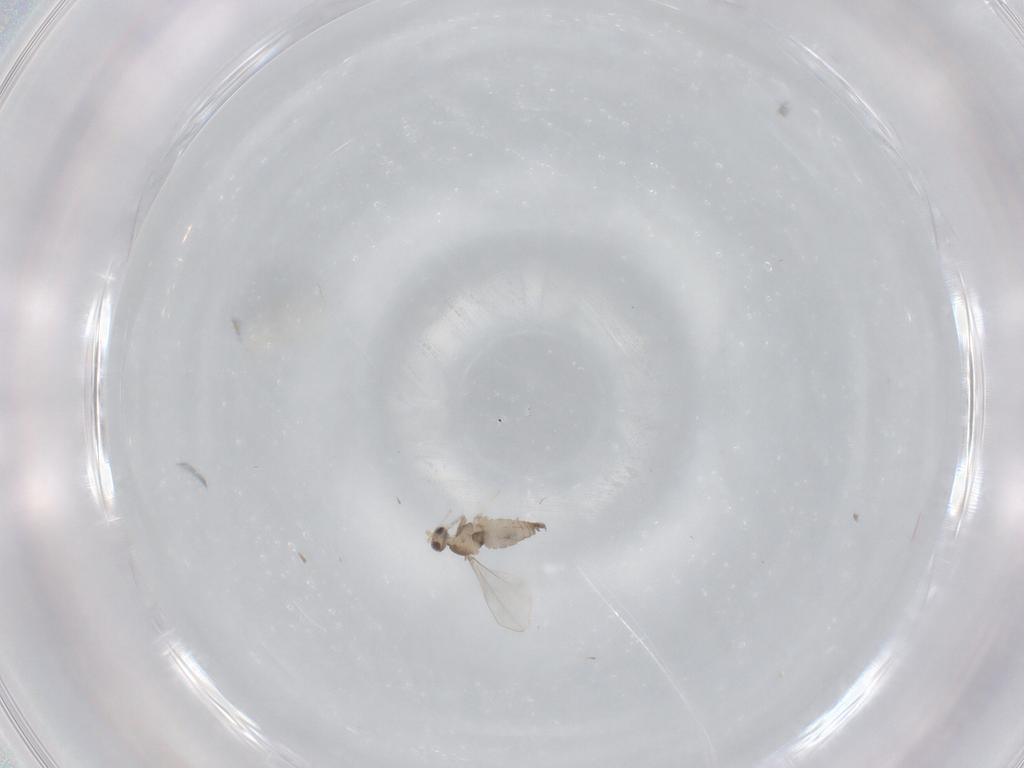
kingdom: Animalia
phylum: Arthropoda
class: Insecta
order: Diptera
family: Cecidomyiidae
